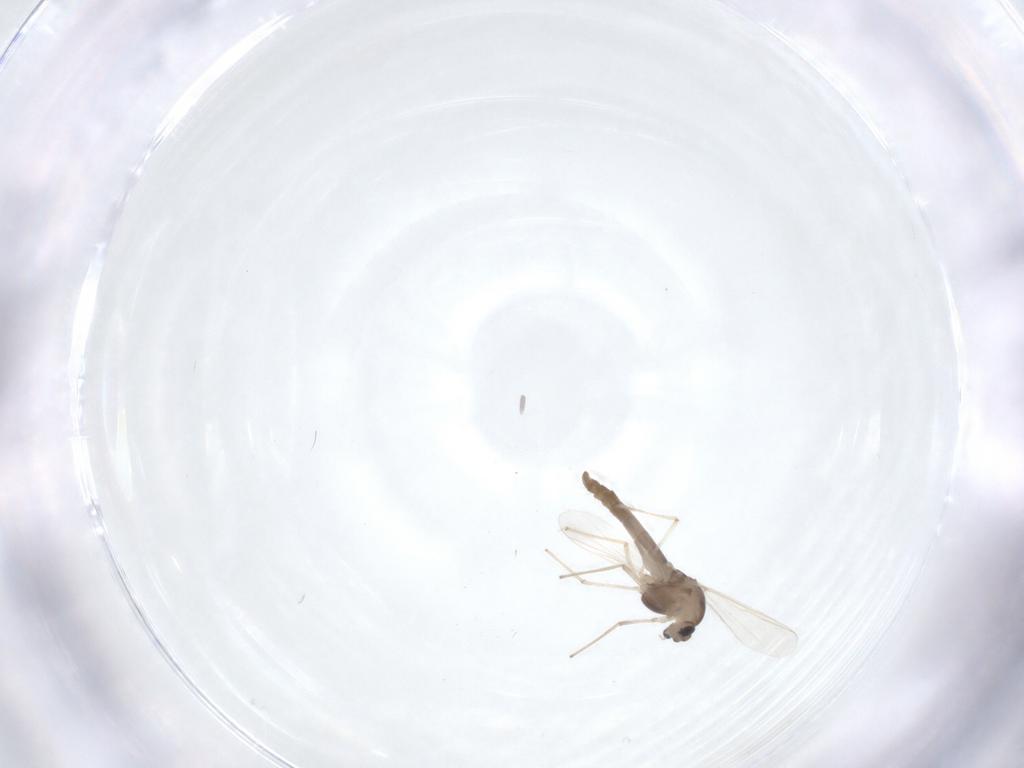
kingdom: Animalia
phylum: Arthropoda
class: Insecta
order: Diptera
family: Chironomidae
